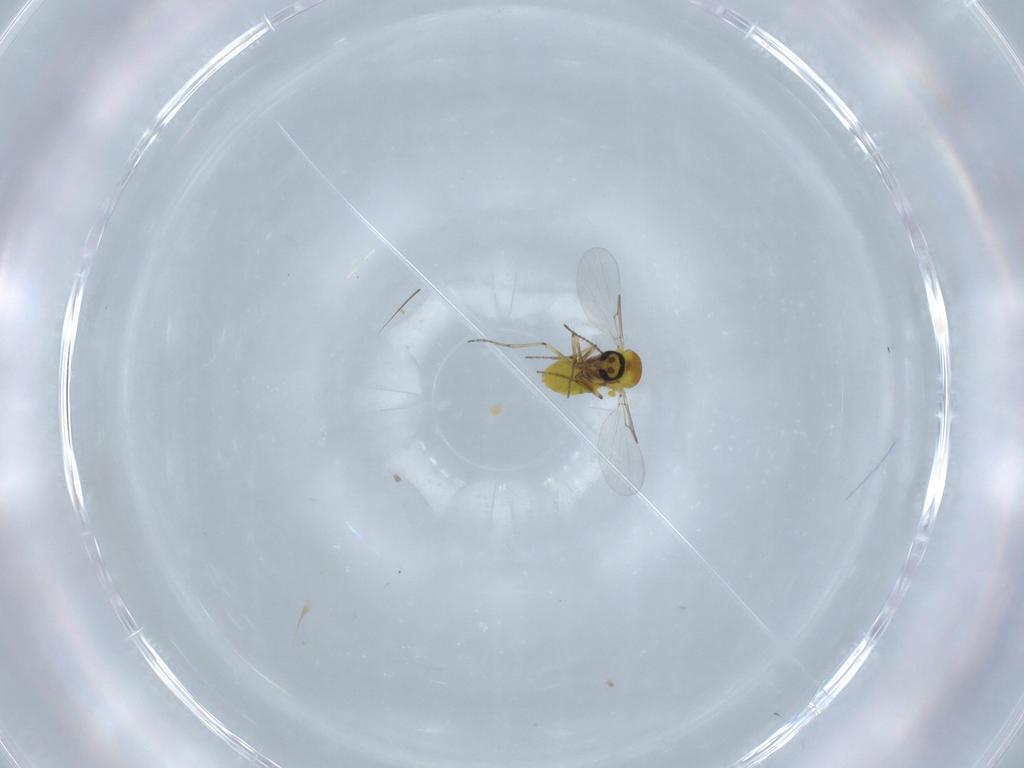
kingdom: Animalia
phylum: Arthropoda
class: Insecta
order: Diptera
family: Ceratopogonidae
